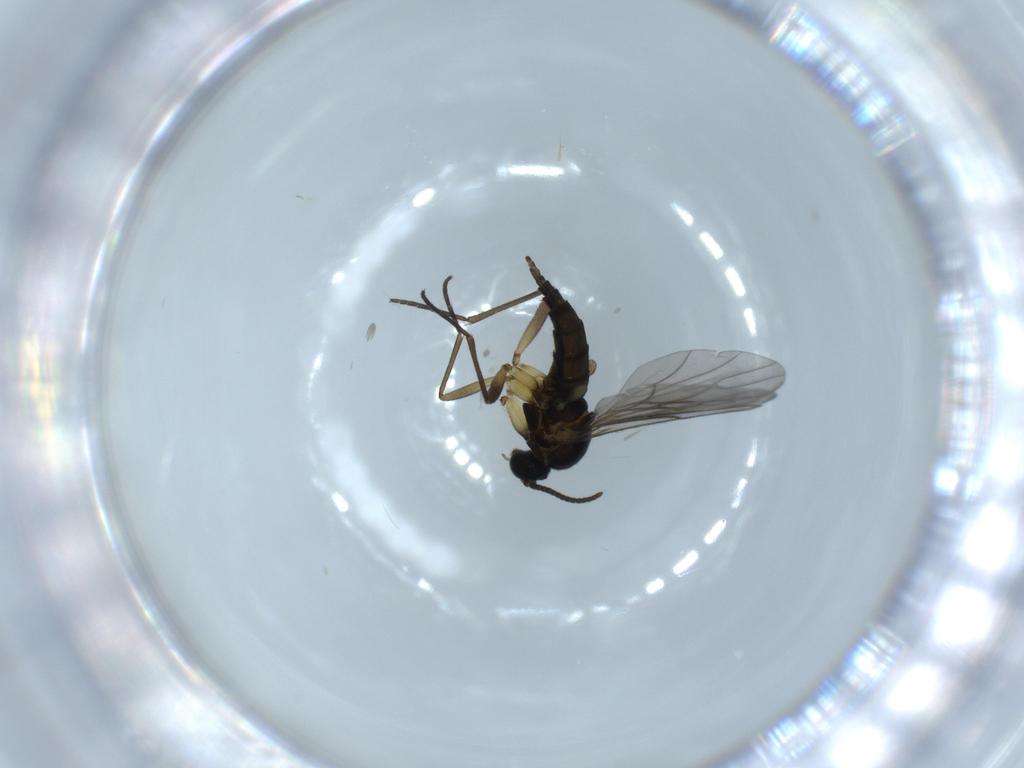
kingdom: Animalia
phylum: Arthropoda
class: Insecta
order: Diptera
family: Sciaridae
